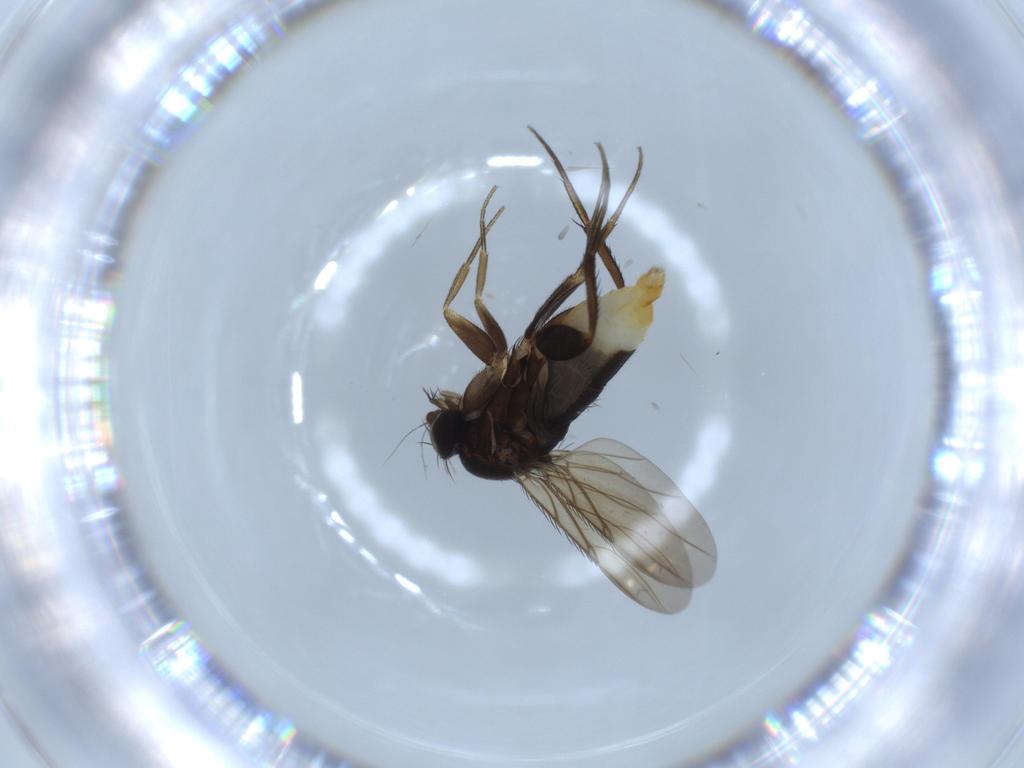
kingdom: Animalia
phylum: Arthropoda
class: Insecta
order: Diptera
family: Phoridae
